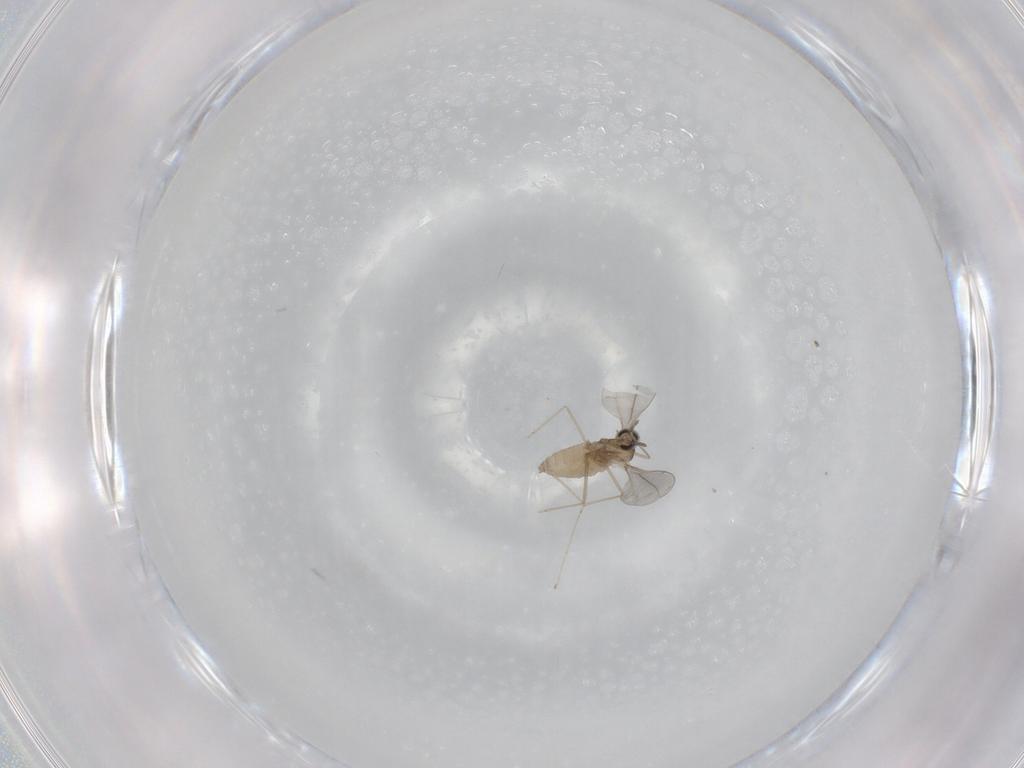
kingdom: Animalia
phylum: Arthropoda
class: Insecta
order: Diptera
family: Cecidomyiidae
